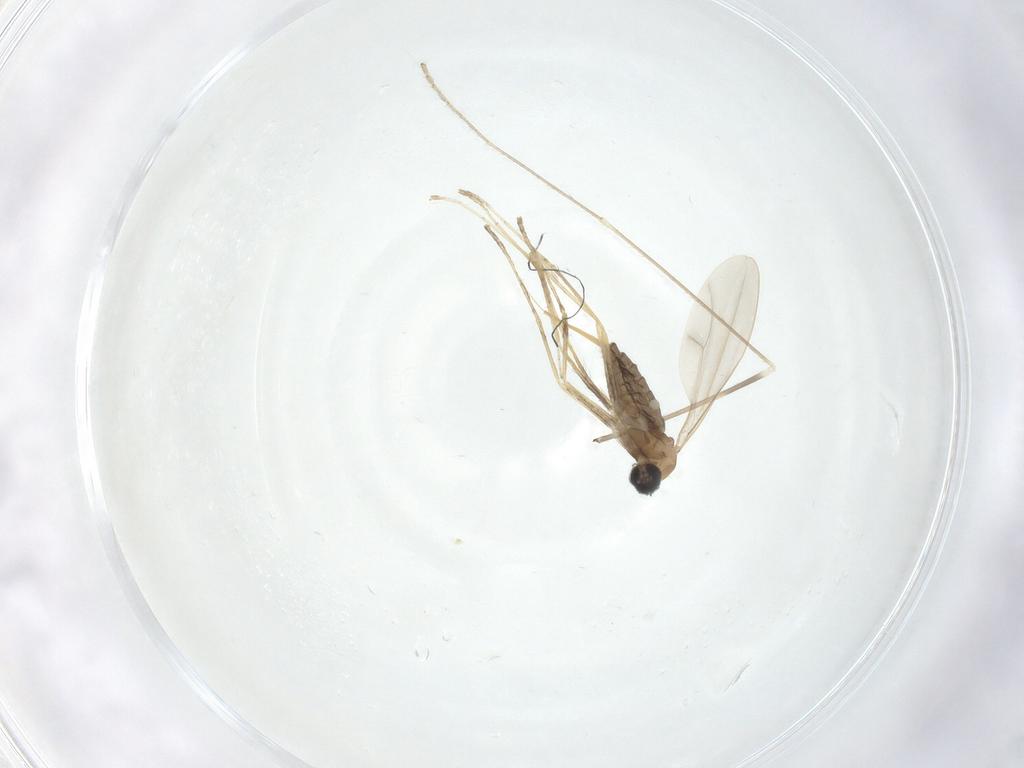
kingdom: Animalia
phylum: Arthropoda
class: Insecta
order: Diptera
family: Cecidomyiidae
